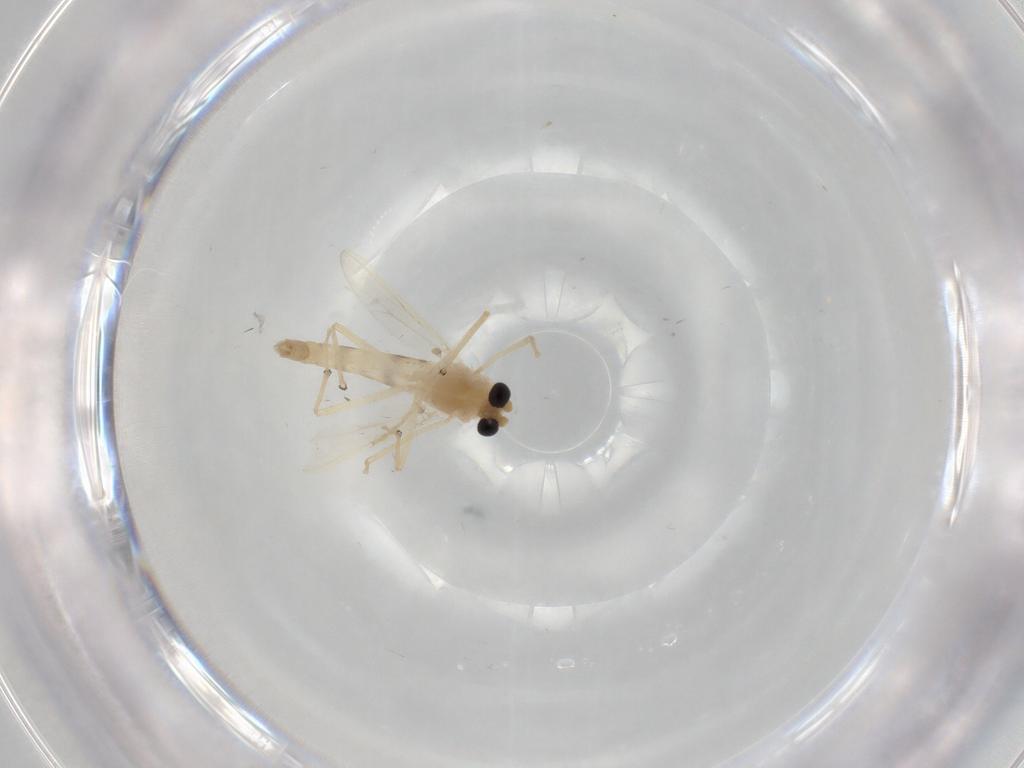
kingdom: Animalia
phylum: Arthropoda
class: Insecta
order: Diptera
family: Chironomidae
